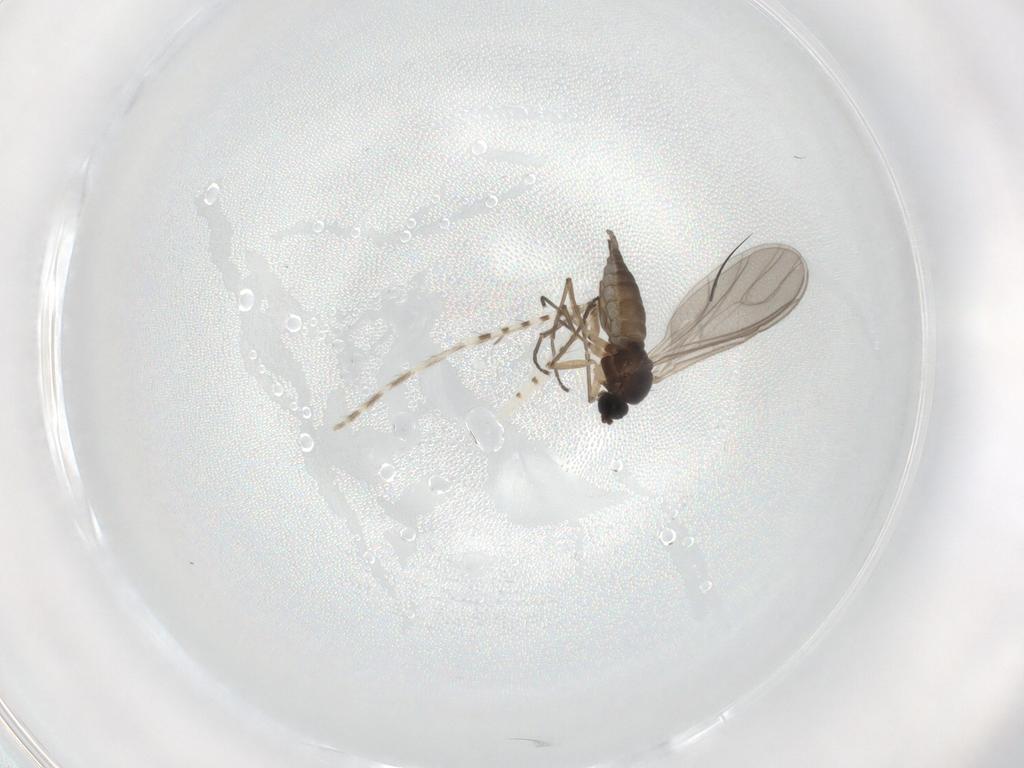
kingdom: Animalia
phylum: Arthropoda
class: Insecta
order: Diptera
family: Sciaridae
